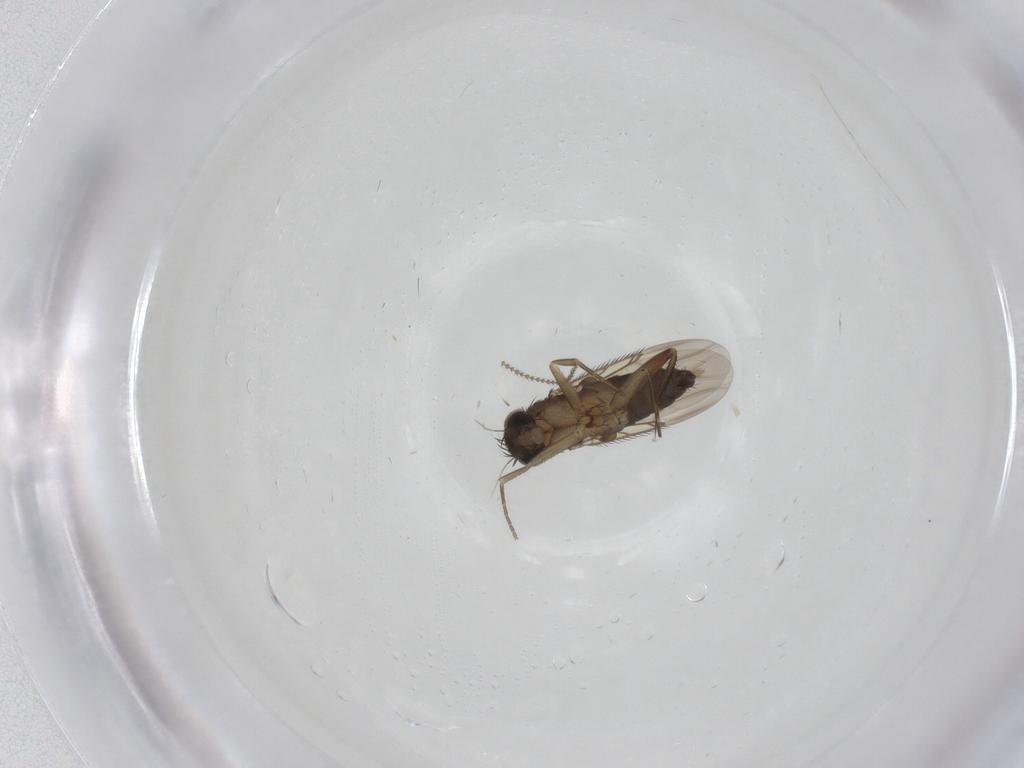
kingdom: Animalia
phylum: Arthropoda
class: Insecta
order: Diptera
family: Phoridae
